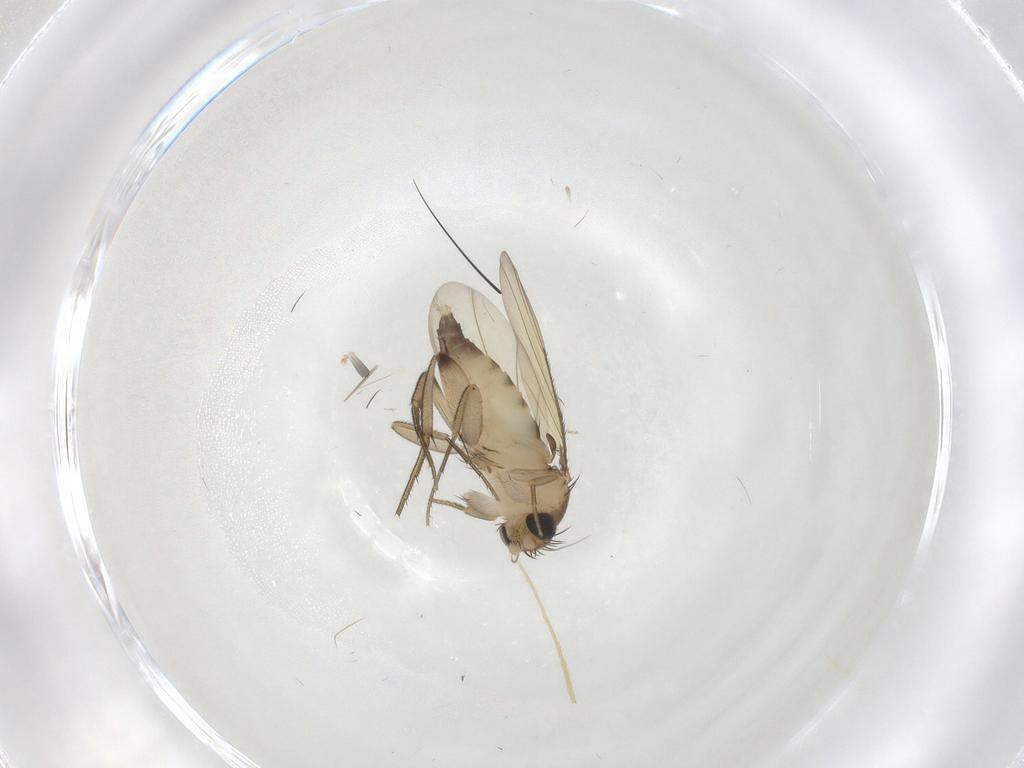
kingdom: Animalia
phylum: Arthropoda
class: Insecta
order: Diptera
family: Phoridae
